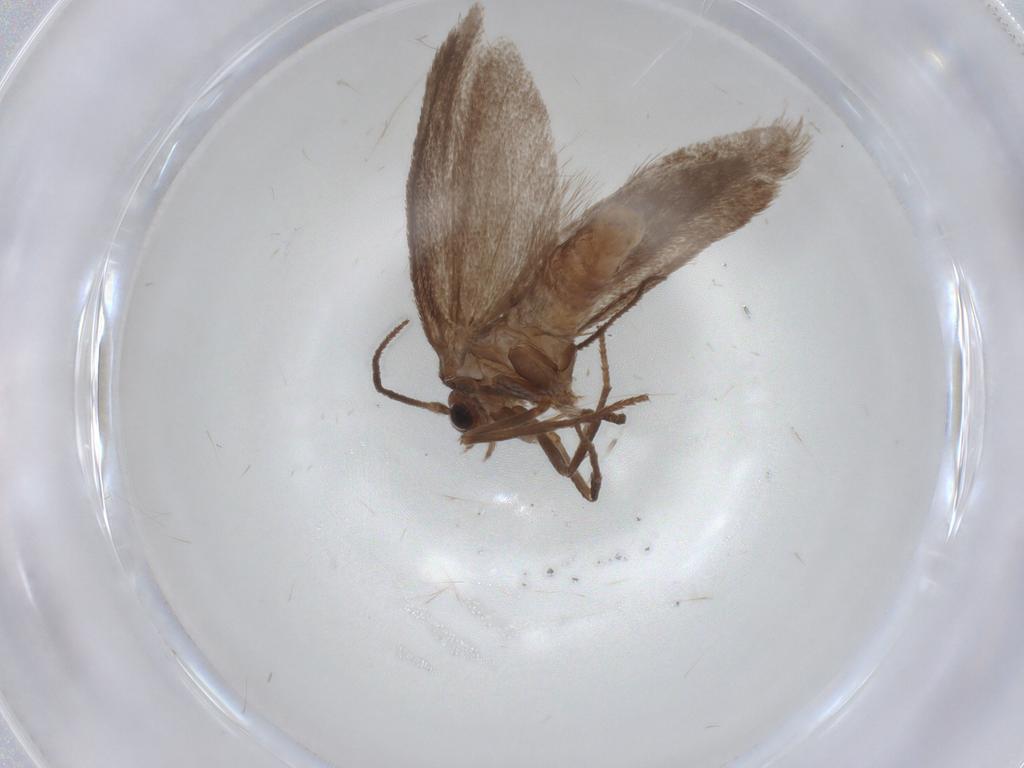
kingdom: Animalia
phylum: Arthropoda
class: Insecta
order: Lepidoptera
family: Limacodidae
